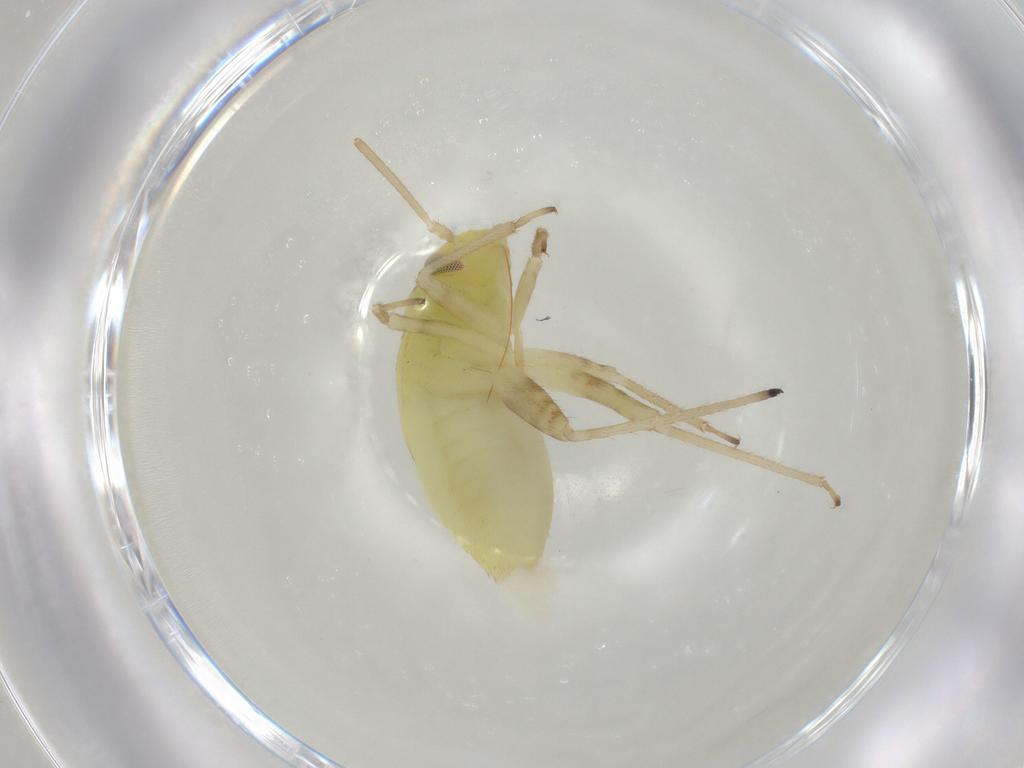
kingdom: Animalia
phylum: Arthropoda
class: Insecta
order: Hemiptera
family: Miridae
